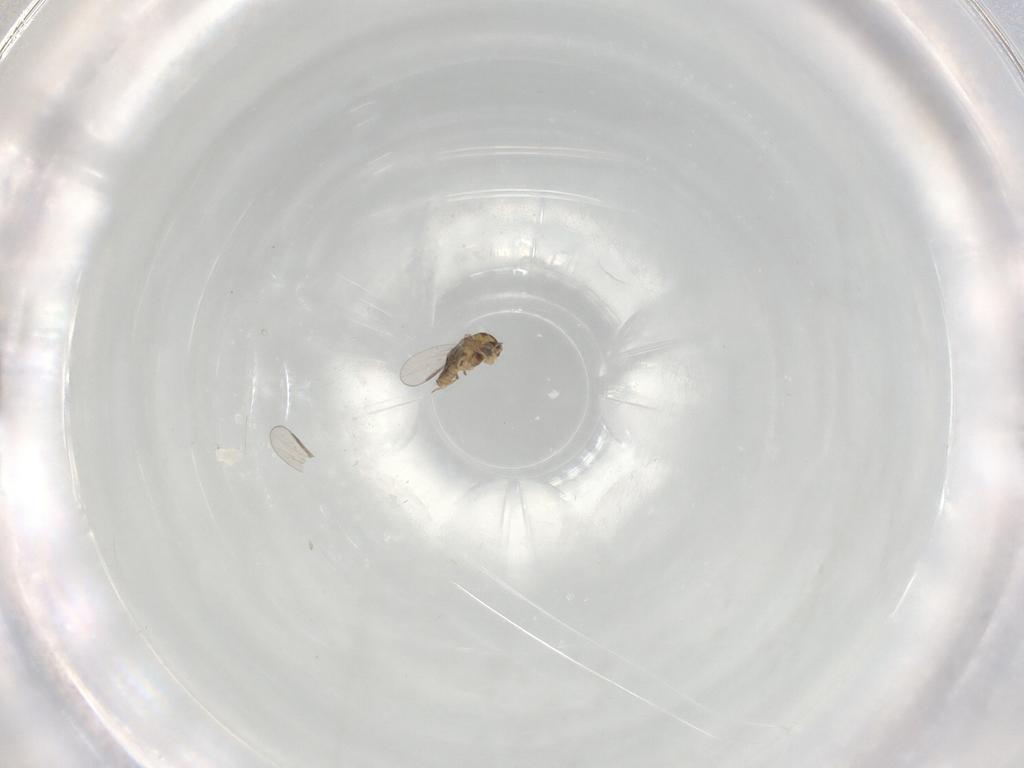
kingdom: Animalia
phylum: Arthropoda
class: Insecta
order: Diptera
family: Chironomidae
